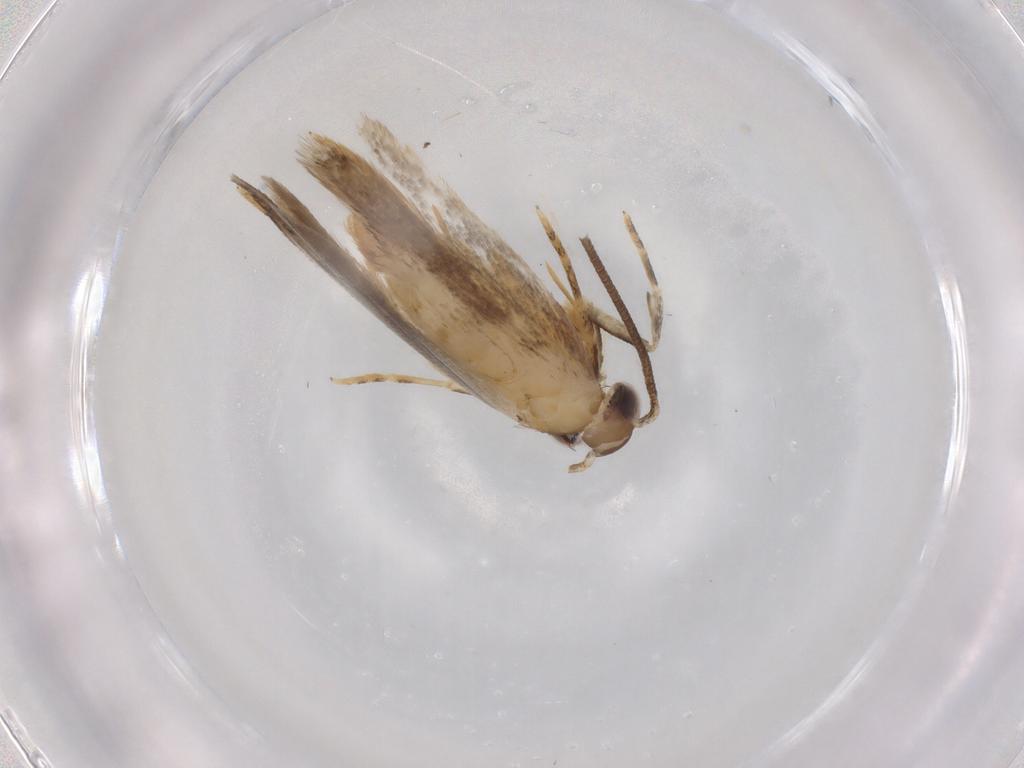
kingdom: Animalia
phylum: Arthropoda
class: Insecta
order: Lepidoptera
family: Autostichidae
